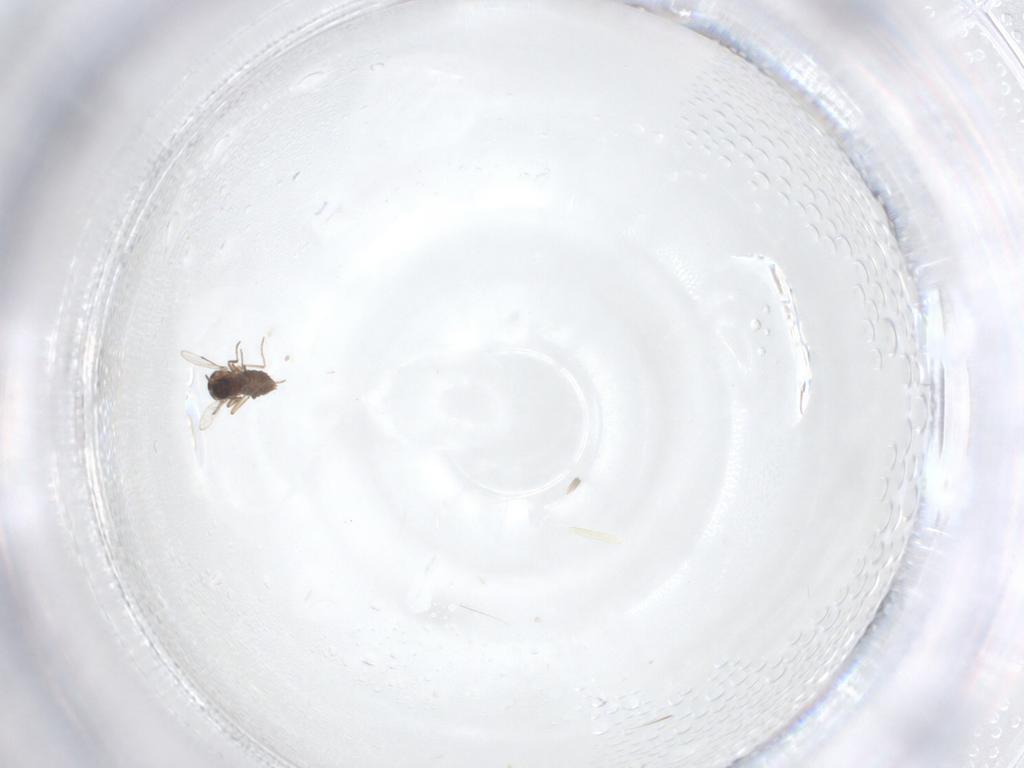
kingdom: Animalia
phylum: Arthropoda
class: Insecta
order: Diptera
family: Ceratopogonidae
